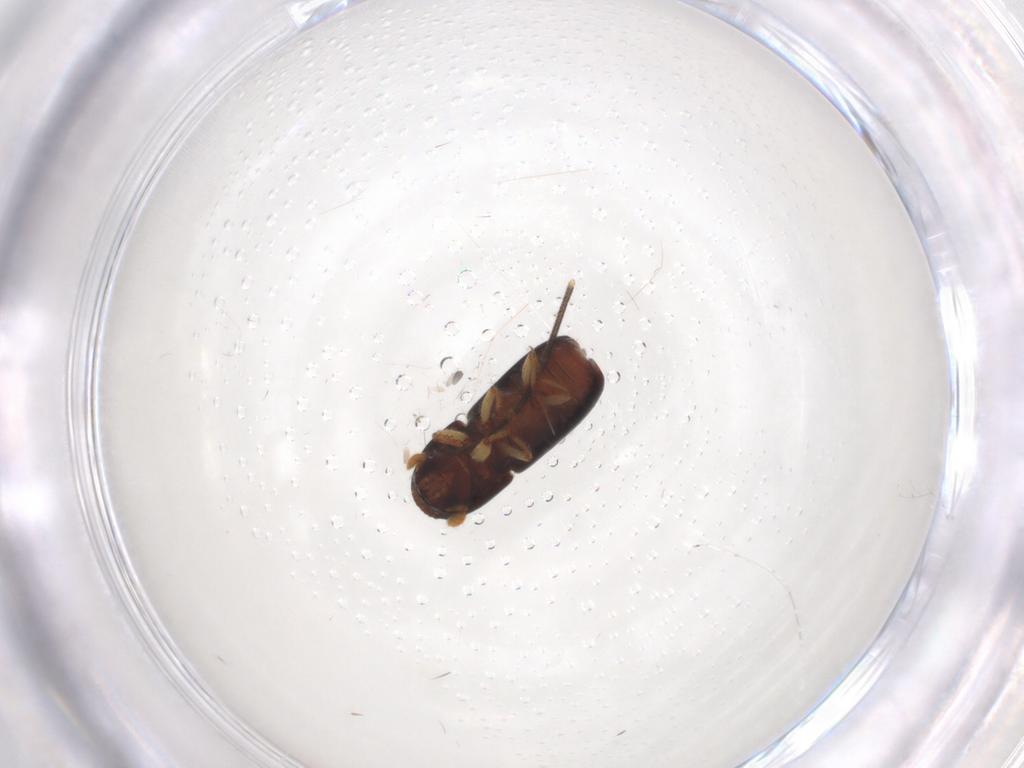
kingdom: Animalia
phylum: Arthropoda
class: Insecta
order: Coleoptera
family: Curculionidae
